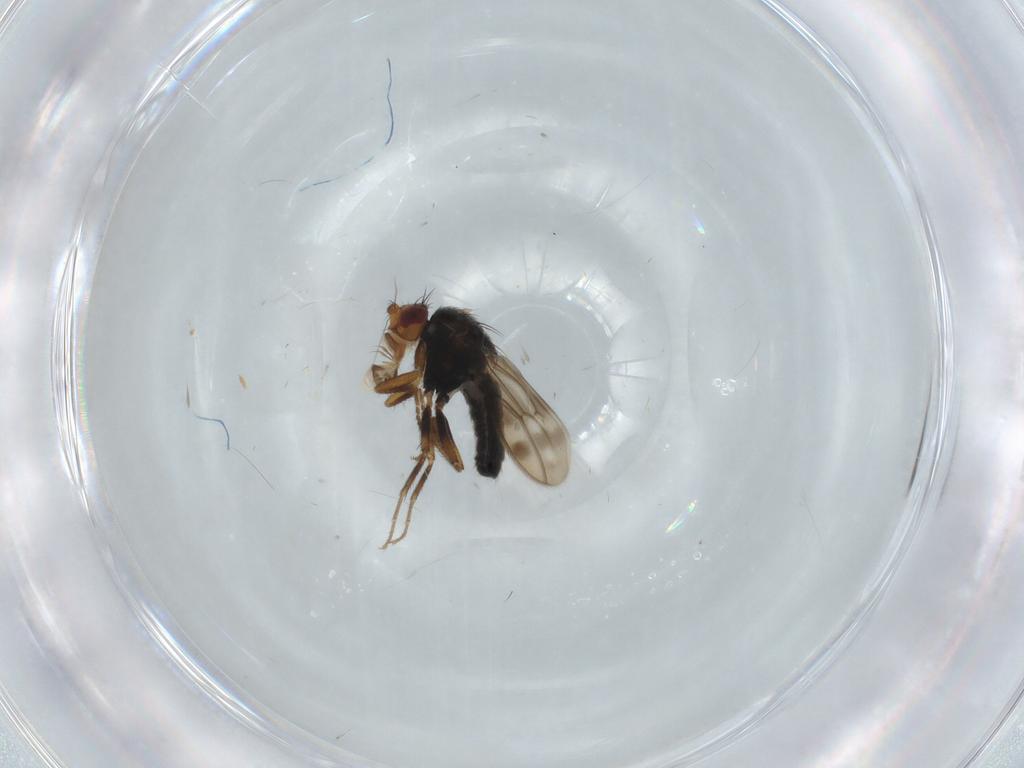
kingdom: Animalia
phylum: Arthropoda
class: Insecta
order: Diptera
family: Sphaeroceridae
